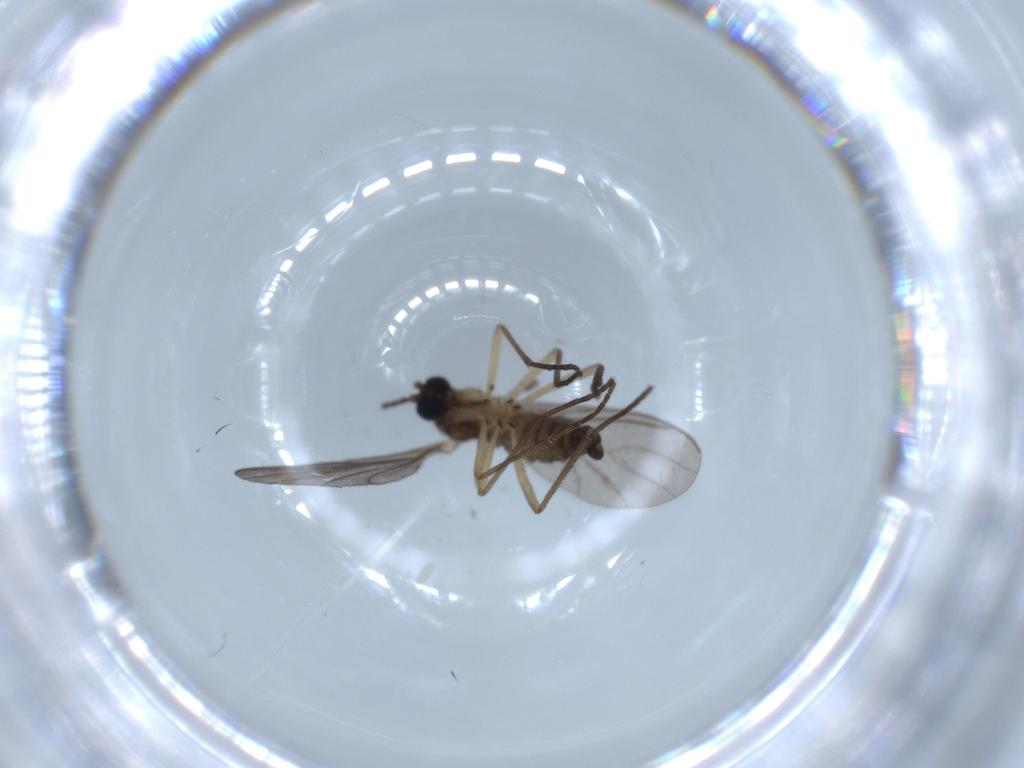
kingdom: Animalia
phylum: Arthropoda
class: Insecta
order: Diptera
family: Sciaridae
